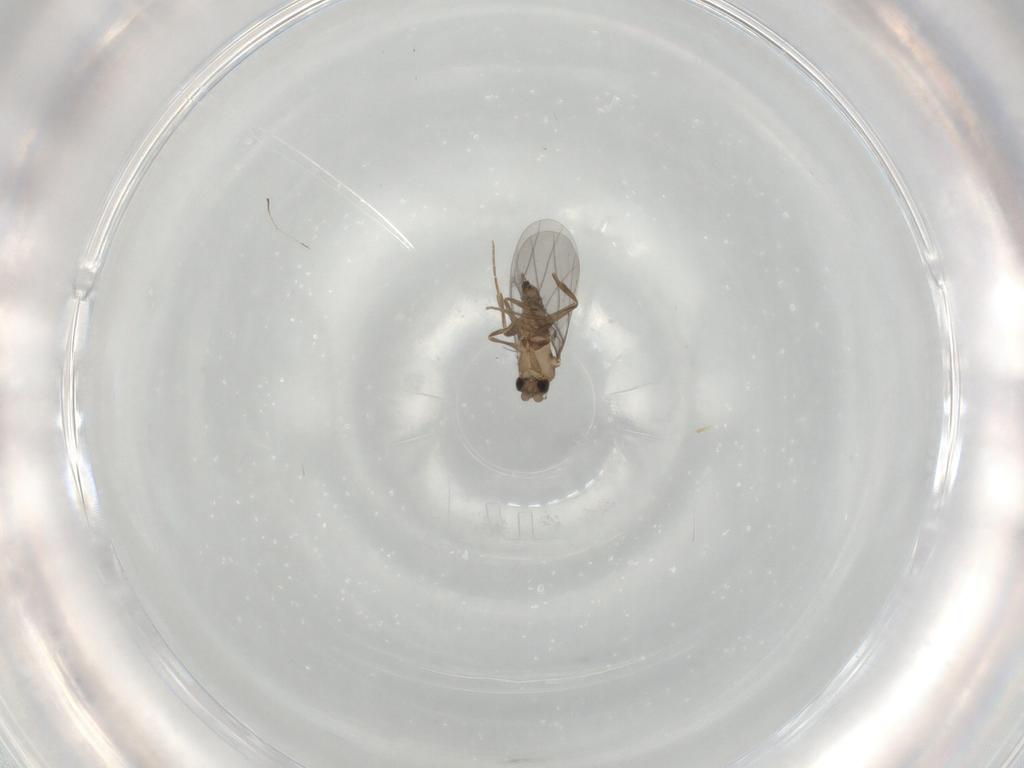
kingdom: Animalia
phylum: Arthropoda
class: Insecta
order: Diptera
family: Phoridae
